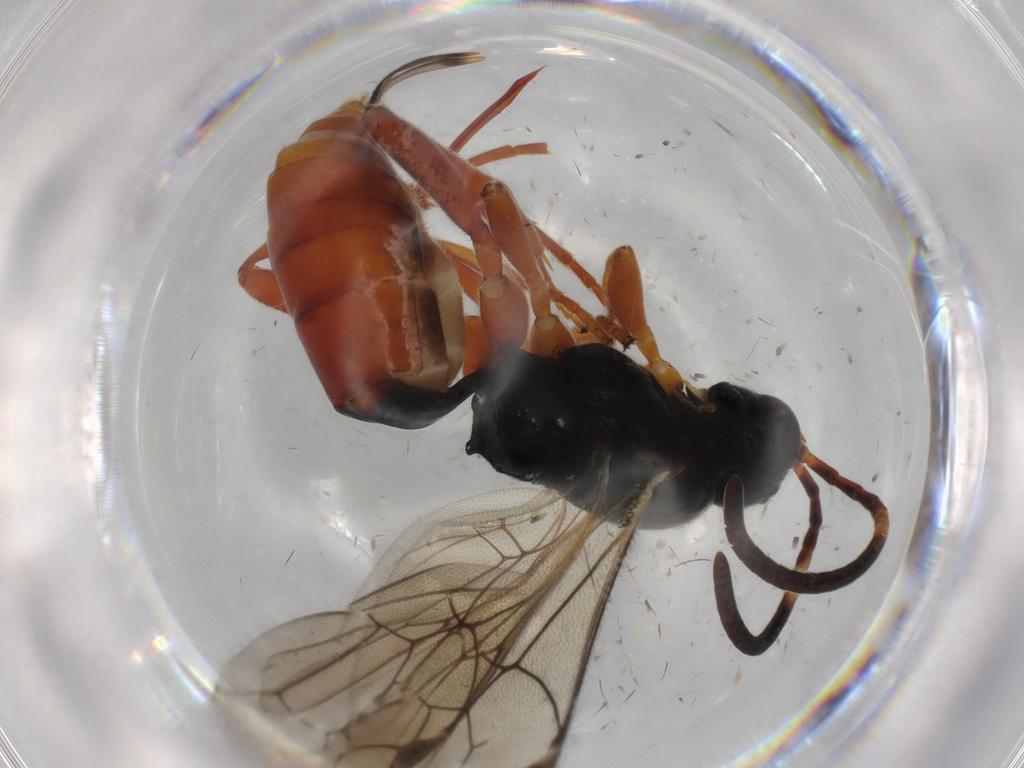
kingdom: Animalia
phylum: Arthropoda
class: Insecta
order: Hymenoptera
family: Ichneumonidae
